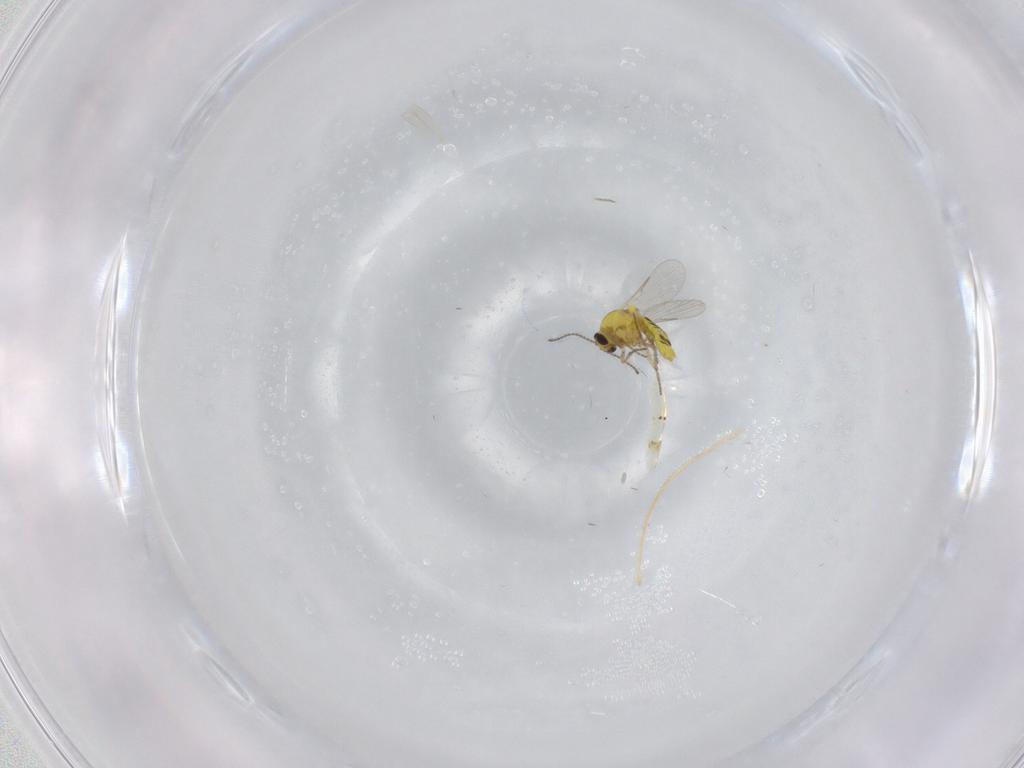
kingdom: Animalia
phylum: Arthropoda
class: Insecta
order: Diptera
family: Ceratopogonidae
